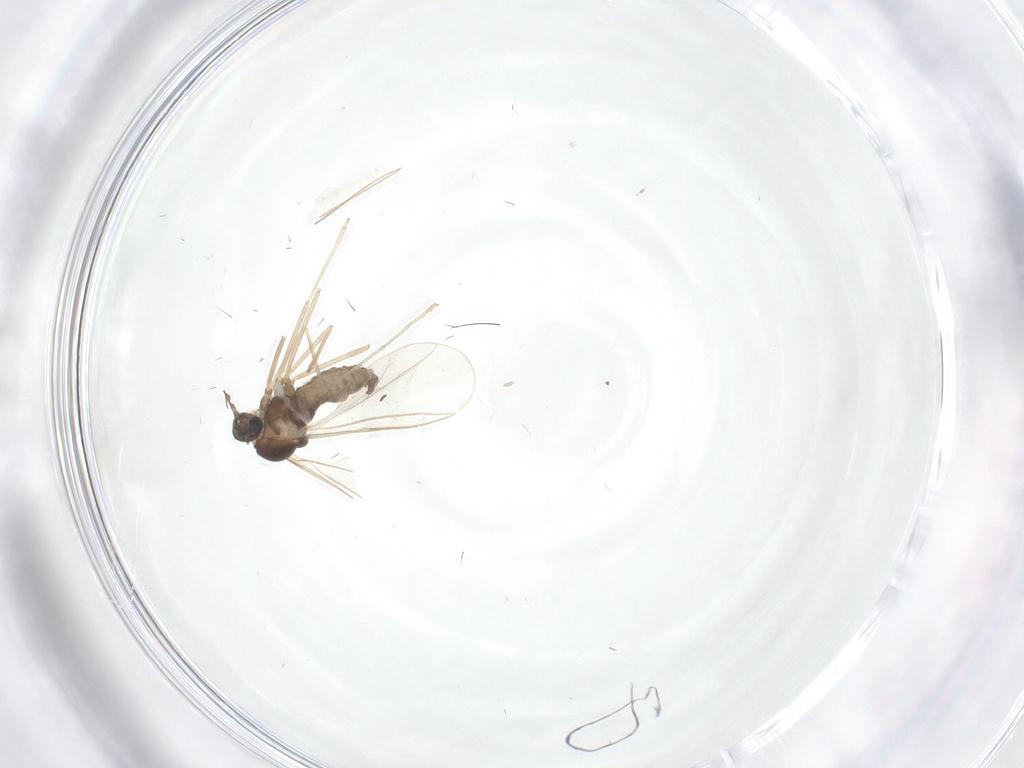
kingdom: Animalia
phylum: Arthropoda
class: Insecta
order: Diptera
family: Cecidomyiidae
